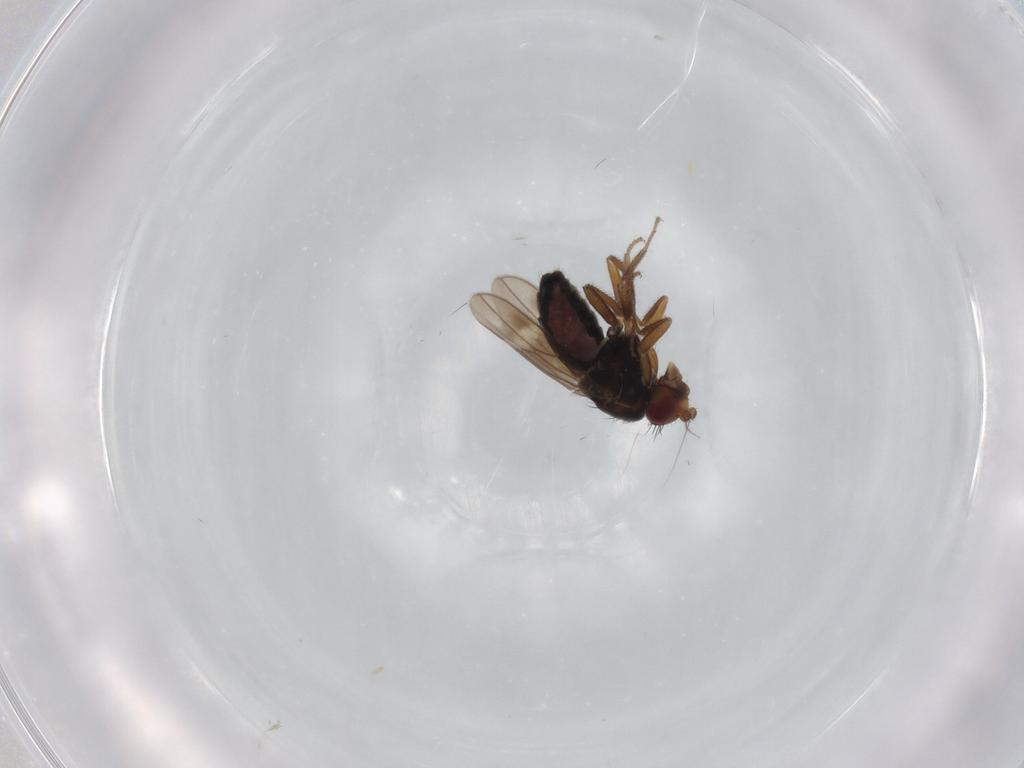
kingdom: Animalia
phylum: Arthropoda
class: Insecta
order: Diptera
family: Sphaeroceridae
